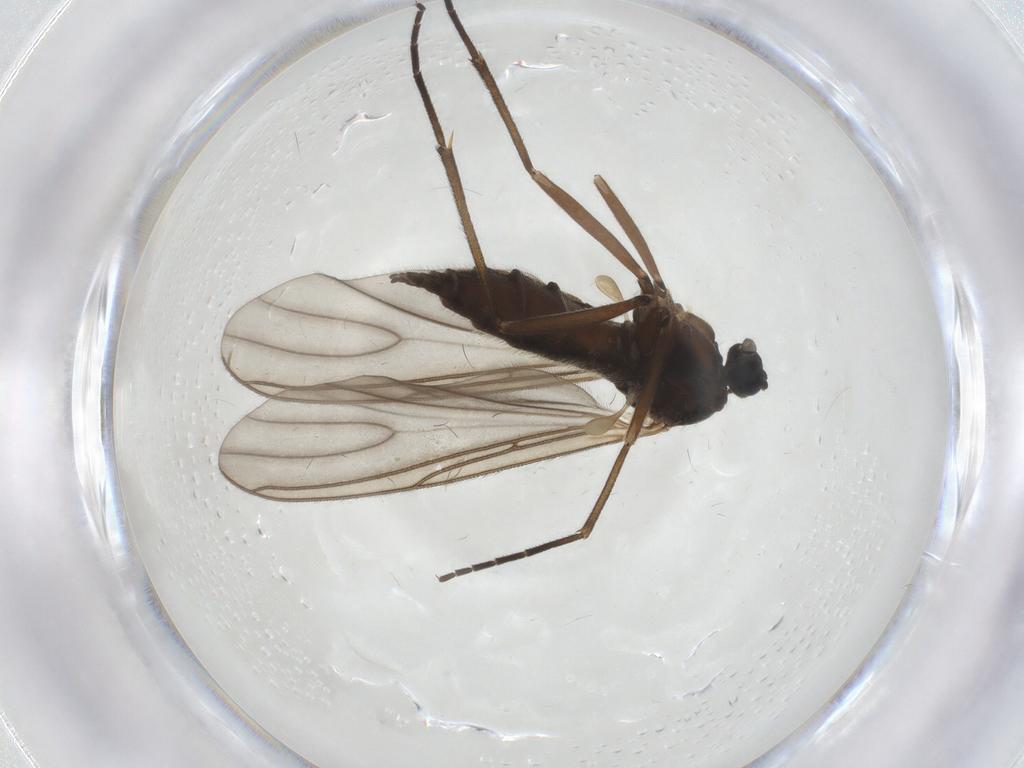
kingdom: Animalia
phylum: Arthropoda
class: Insecta
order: Diptera
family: Sciaridae
